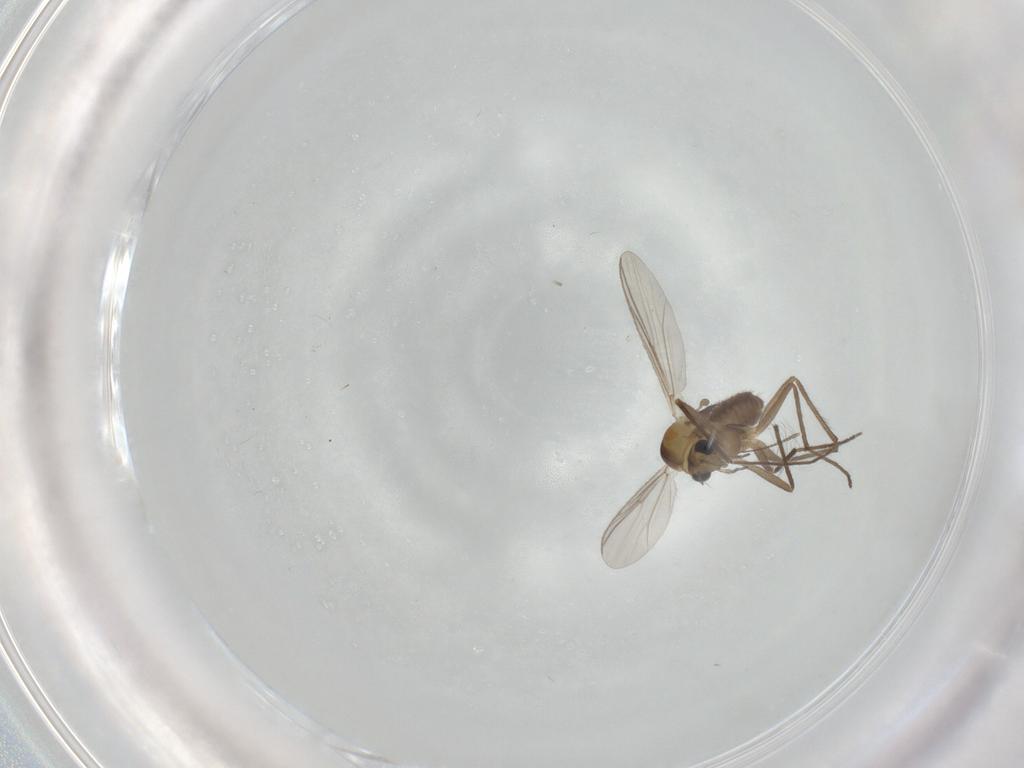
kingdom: Animalia
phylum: Arthropoda
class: Insecta
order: Diptera
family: Chironomidae
